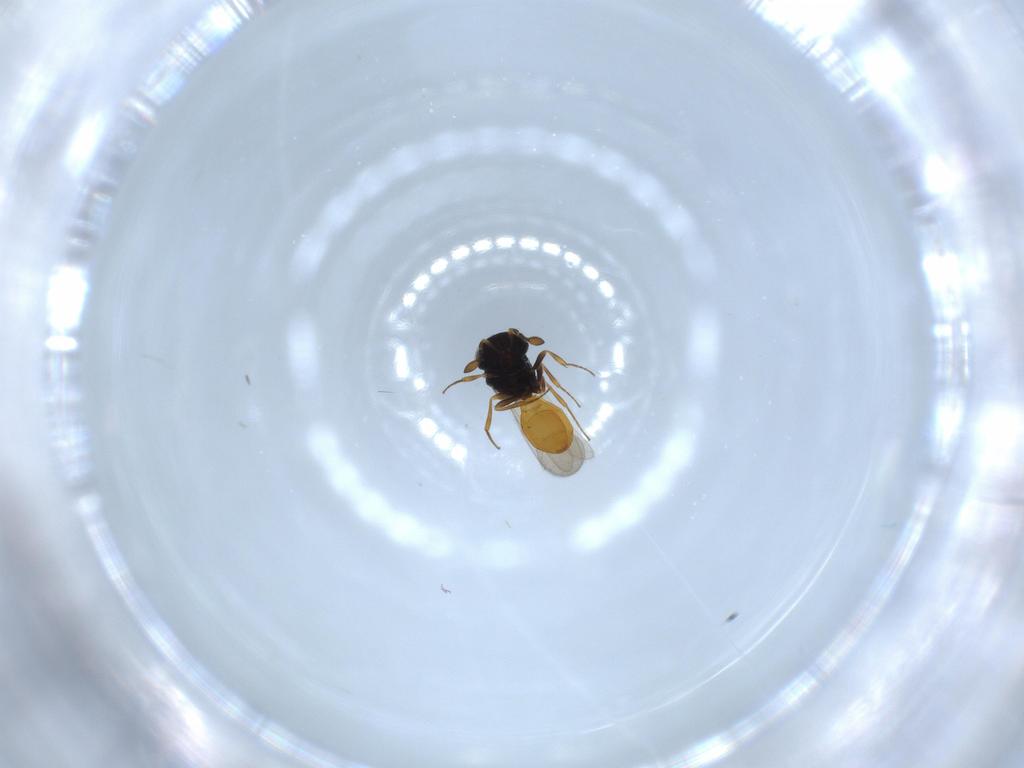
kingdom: Animalia
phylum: Arthropoda
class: Insecta
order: Hymenoptera
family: Scelionidae
